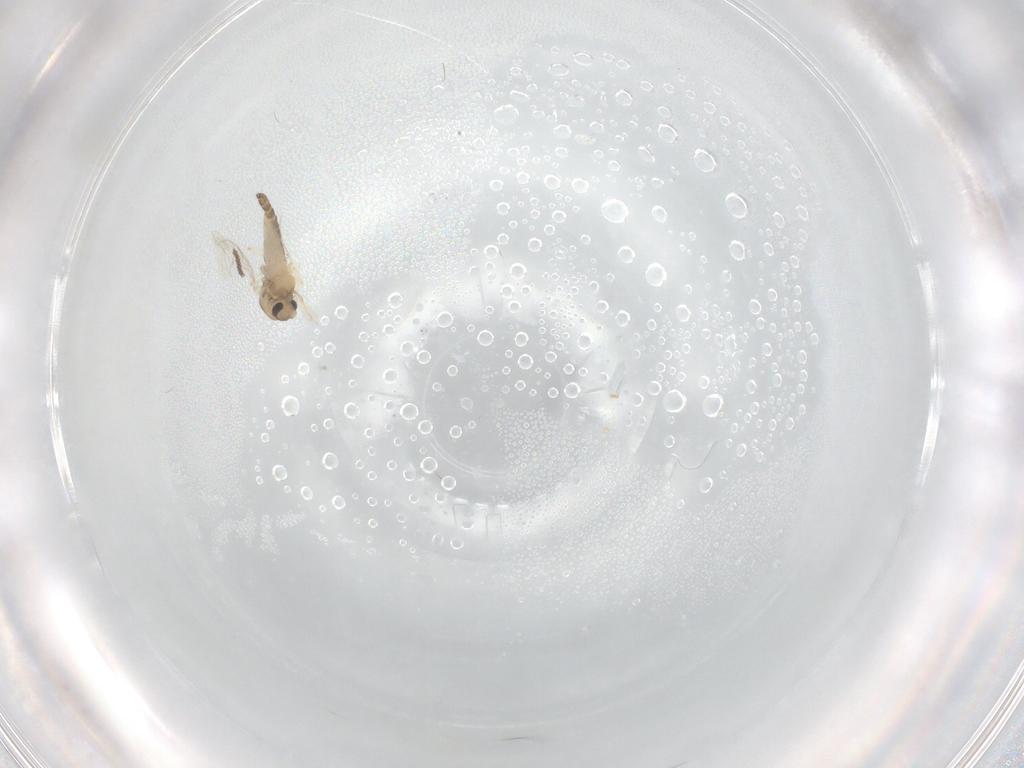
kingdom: Animalia
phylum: Arthropoda
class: Insecta
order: Diptera
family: Chironomidae
